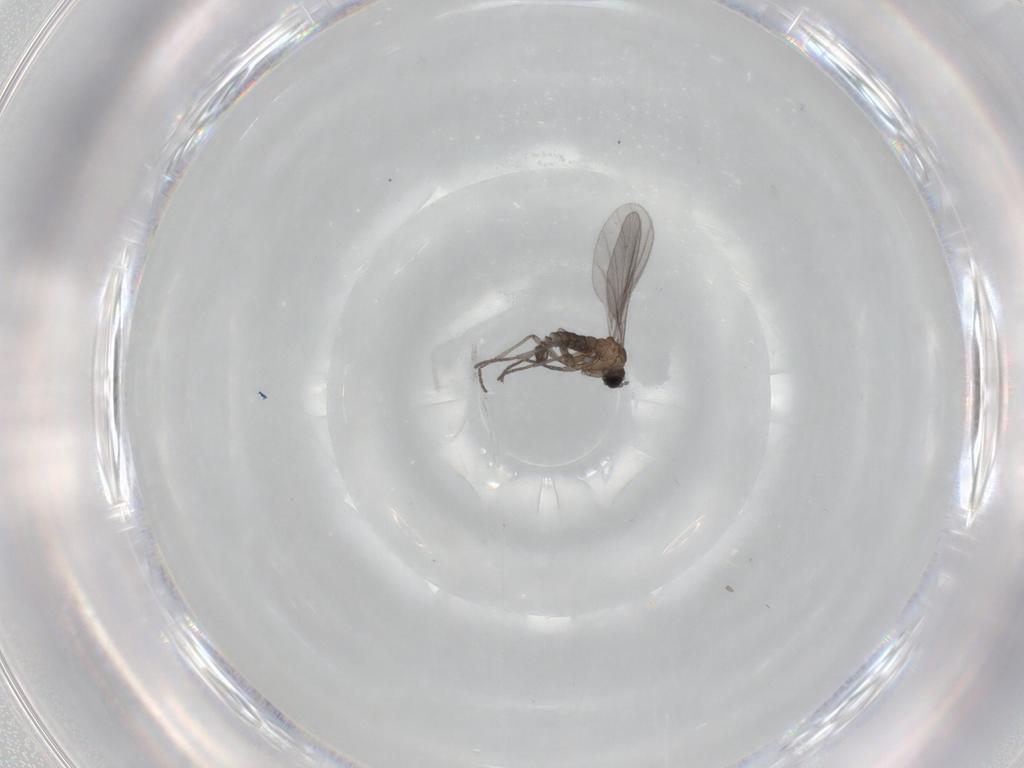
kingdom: Animalia
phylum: Arthropoda
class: Insecta
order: Diptera
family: Sciaridae
